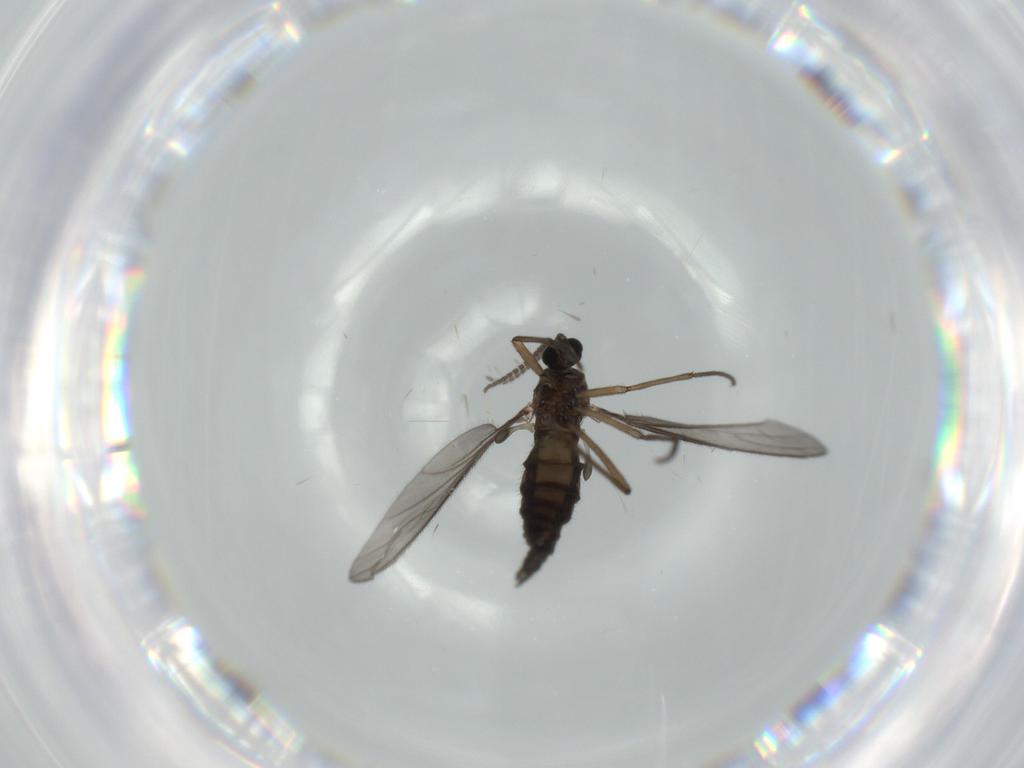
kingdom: Animalia
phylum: Arthropoda
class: Insecta
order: Diptera
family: Sciaridae
